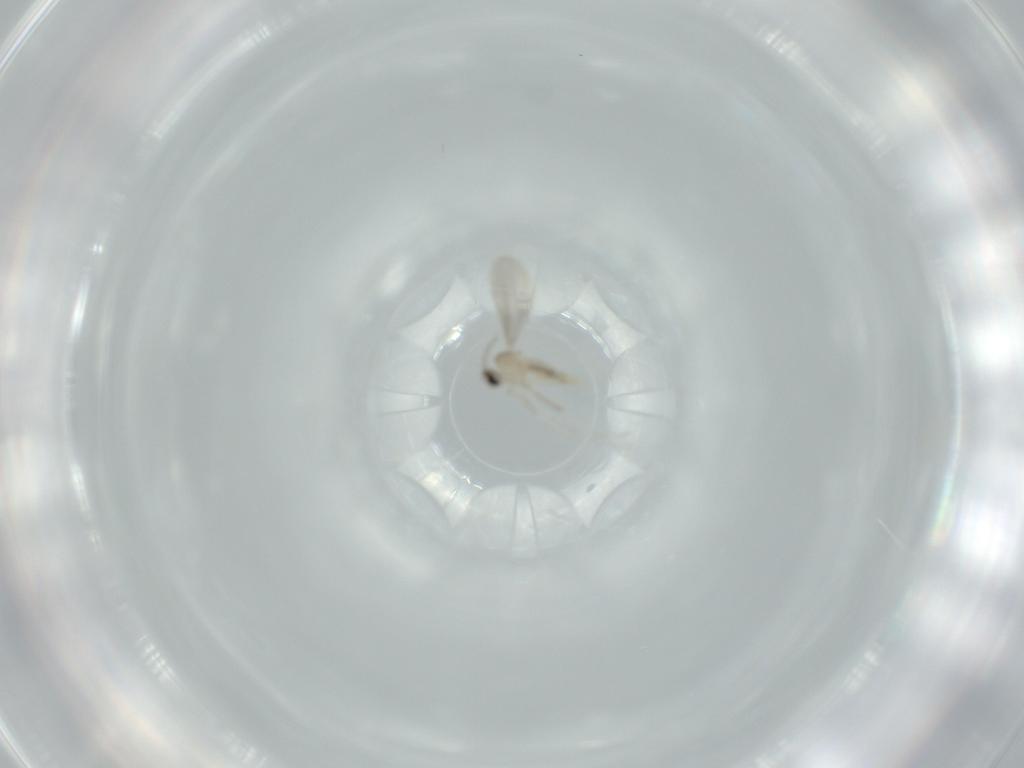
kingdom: Animalia
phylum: Arthropoda
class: Insecta
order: Diptera
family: Cecidomyiidae
